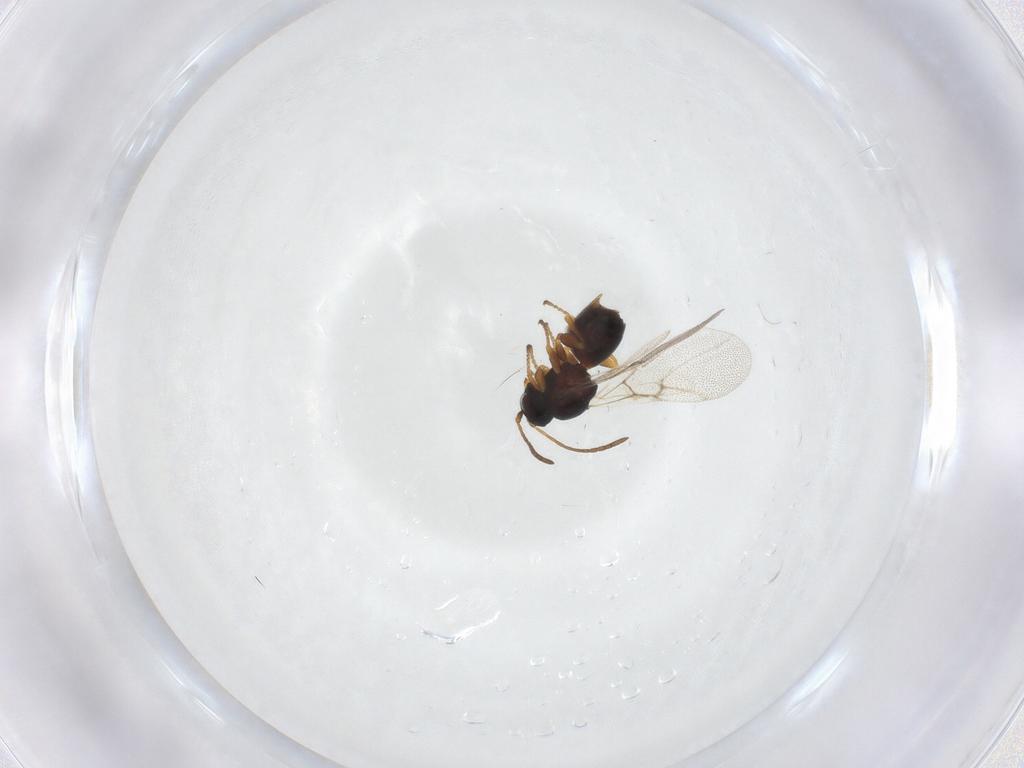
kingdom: Animalia
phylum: Arthropoda
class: Insecta
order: Hymenoptera
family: Cynipidae
